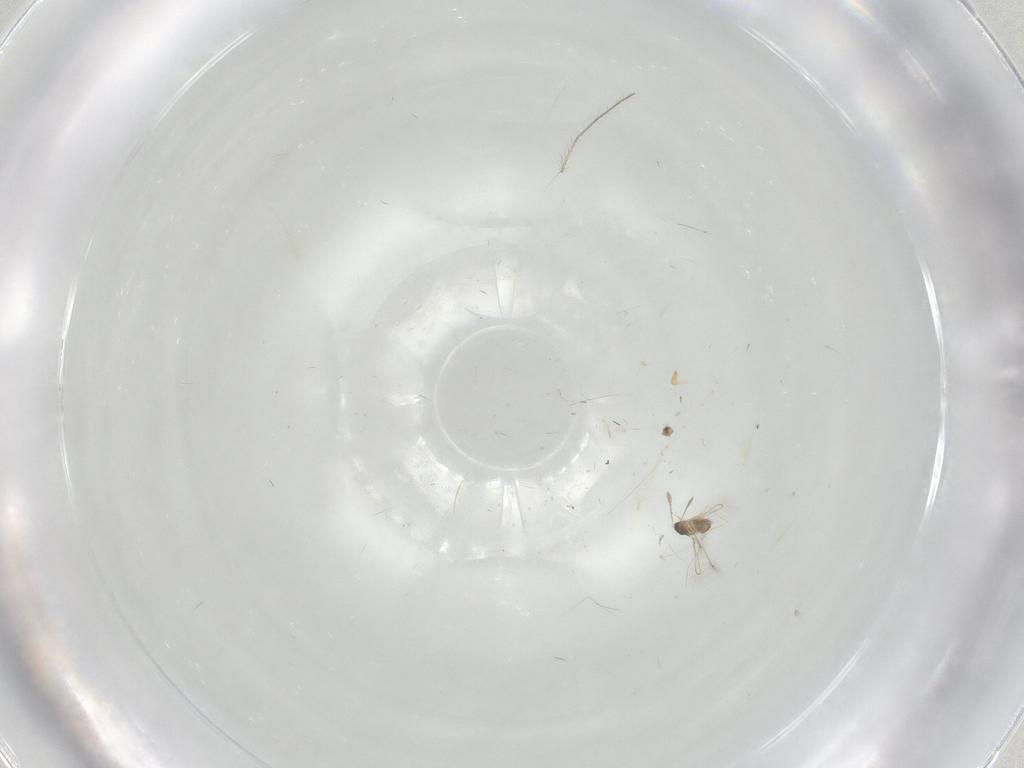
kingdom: Animalia
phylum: Arthropoda
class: Collembola
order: Entomobryomorpha
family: Entomobryidae
